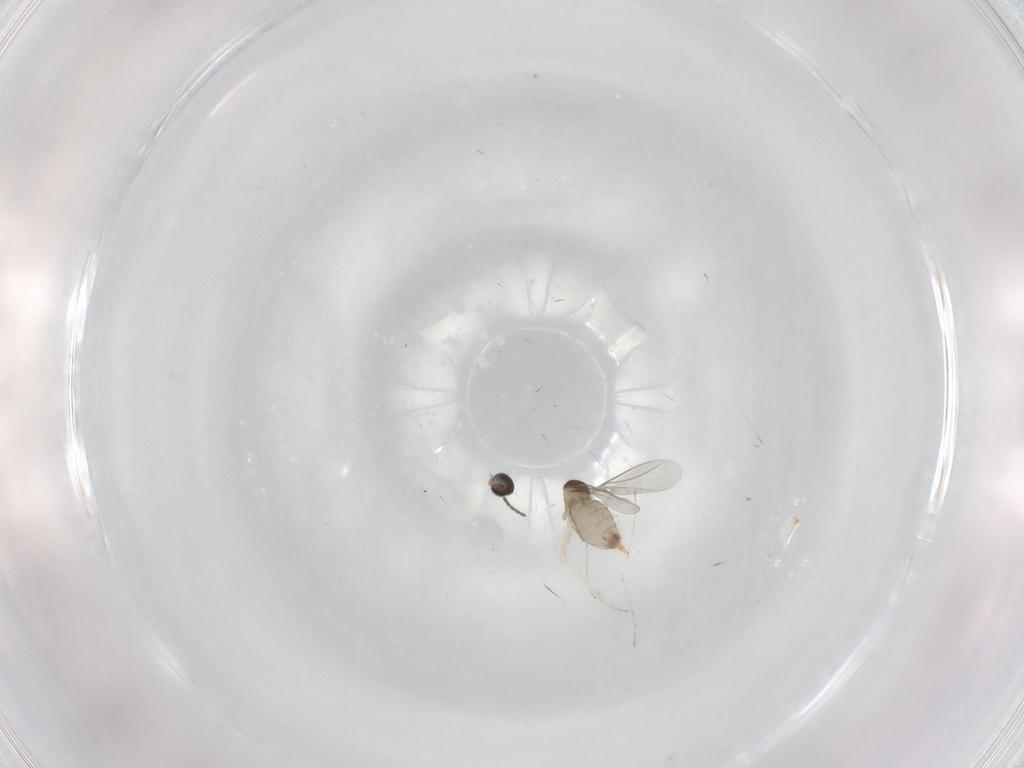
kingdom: Animalia
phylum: Arthropoda
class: Insecta
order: Diptera
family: Cecidomyiidae
